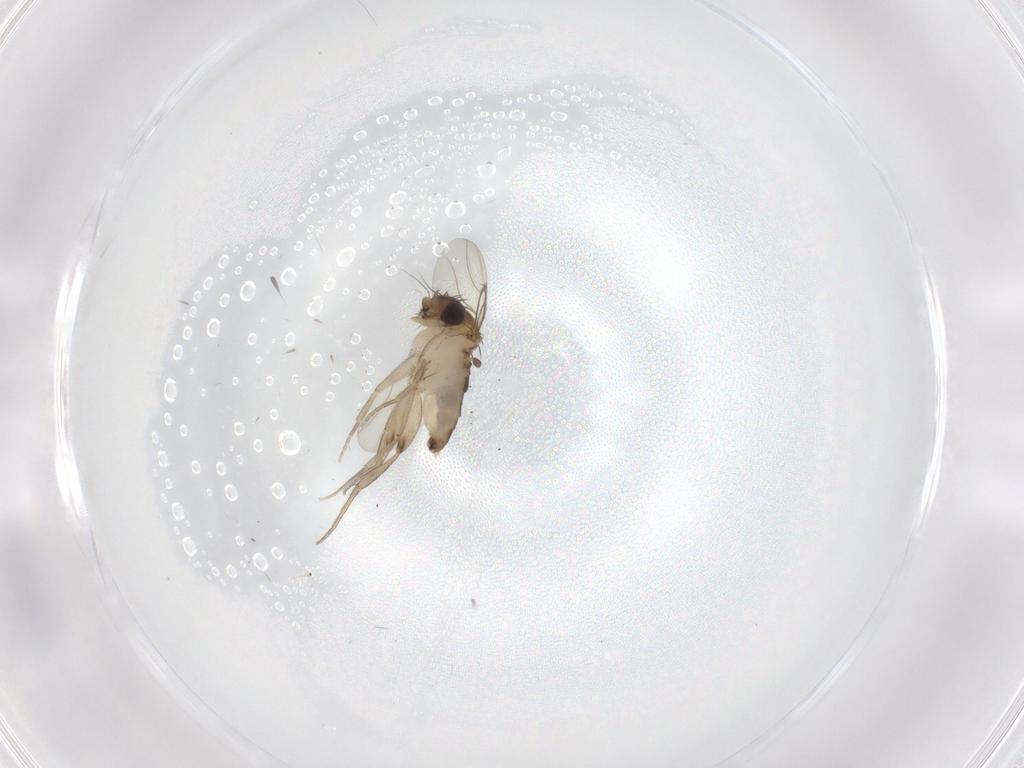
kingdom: Animalia
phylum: Arthropoda
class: Insecta
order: Diptera
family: Phoridae
